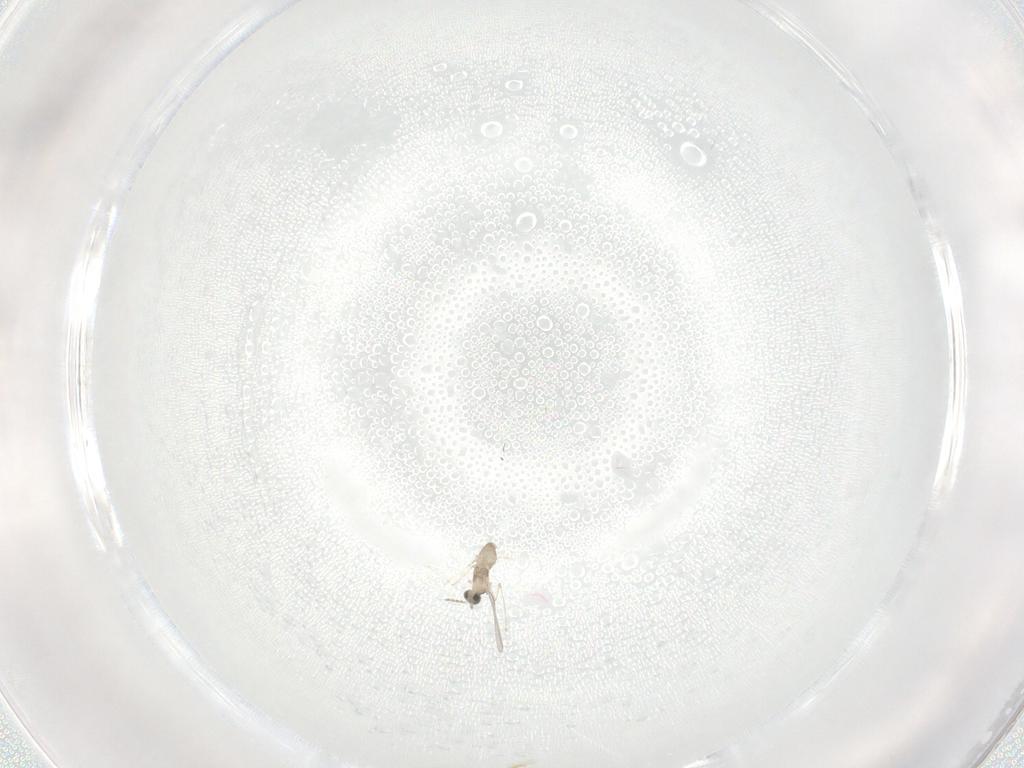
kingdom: Animalia
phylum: Arthropoda
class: Insecta
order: Diptera
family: Cecidomyiidae
